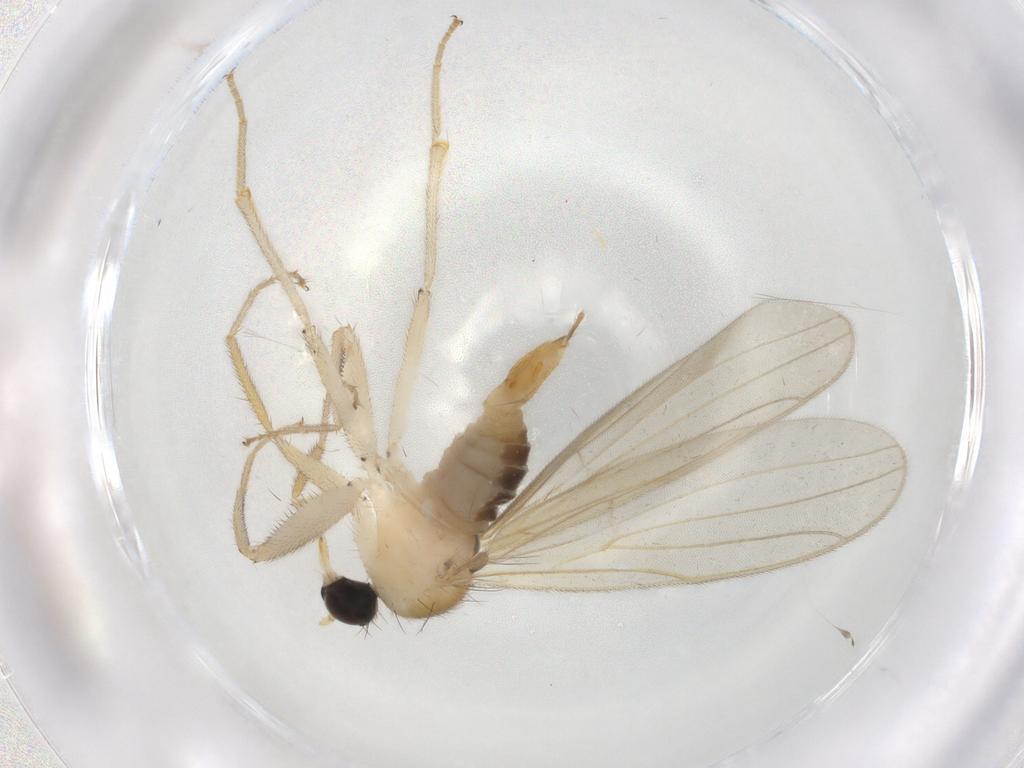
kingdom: Animalia
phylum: Arthropoda
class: Insecta
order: Diptera
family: Hybotidae
